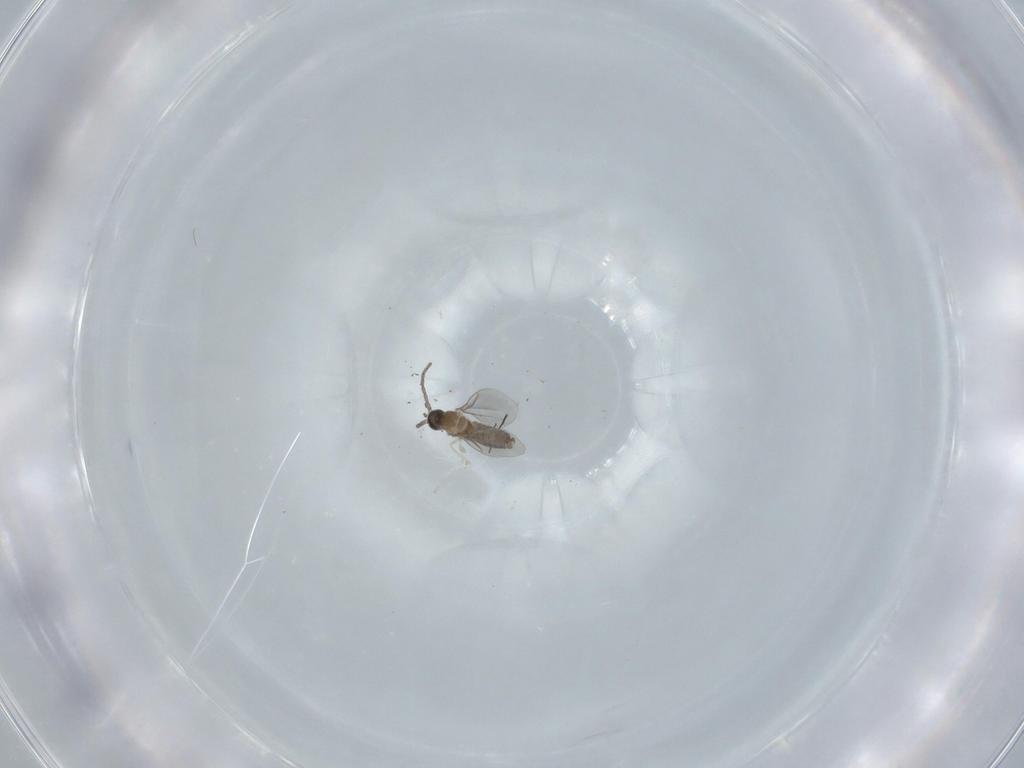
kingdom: Animalia
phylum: Arthropoda
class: Insecta
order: Diptera
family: Cecidomyiidae
